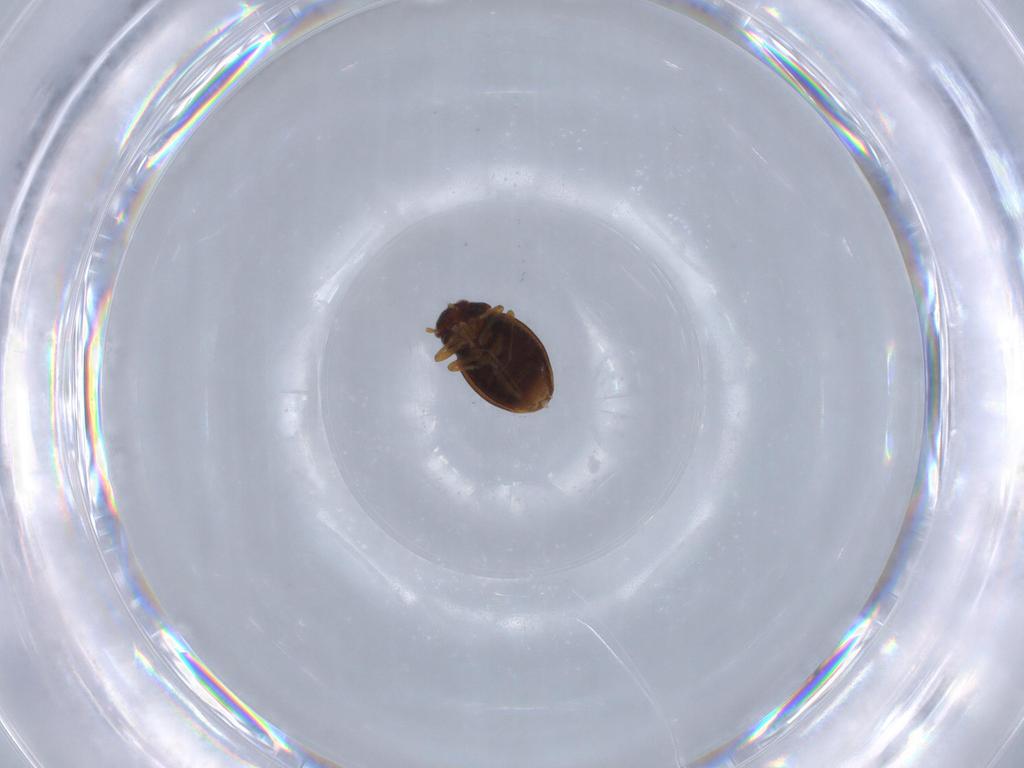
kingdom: Animalia
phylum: Arthropoda
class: Insecta
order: Hemiptera
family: Schizopteridae
